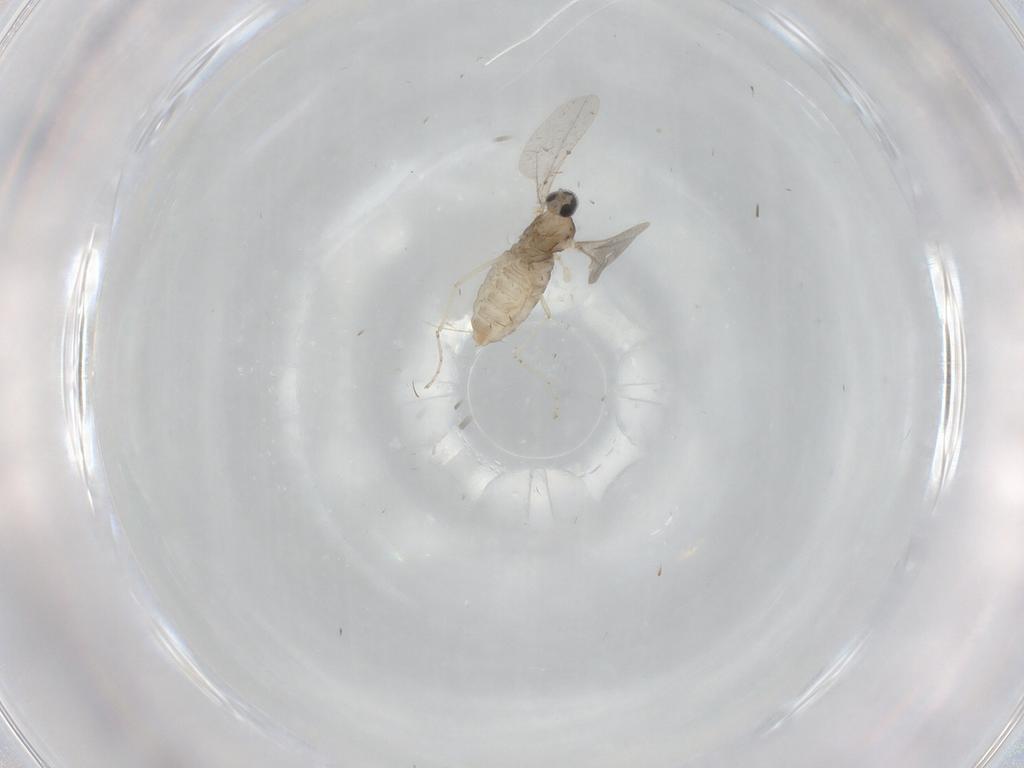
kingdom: Animalia
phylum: Arthropoda
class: Insecta
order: Diptera
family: Cecidomyiidae
